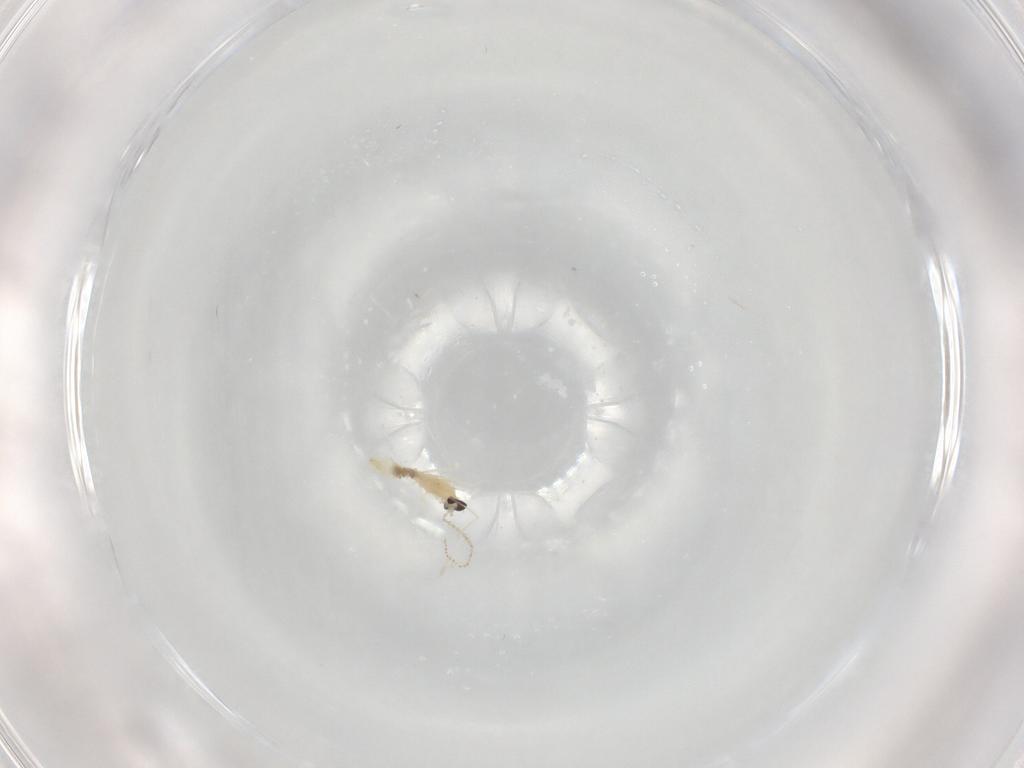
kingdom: Animalia
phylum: Arthropoda
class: Insecta
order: Diptera
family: Cecidomyiidae
